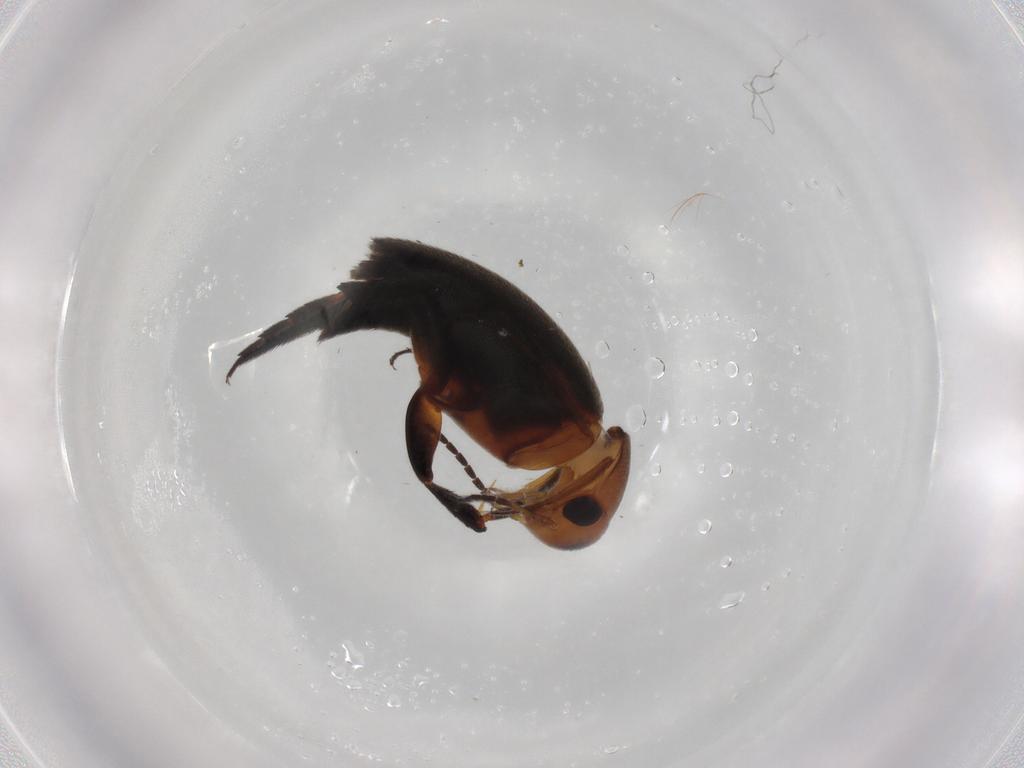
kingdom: Animalia
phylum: Arthropoda
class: Insecta
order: Coleoptera
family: Mordellidae
